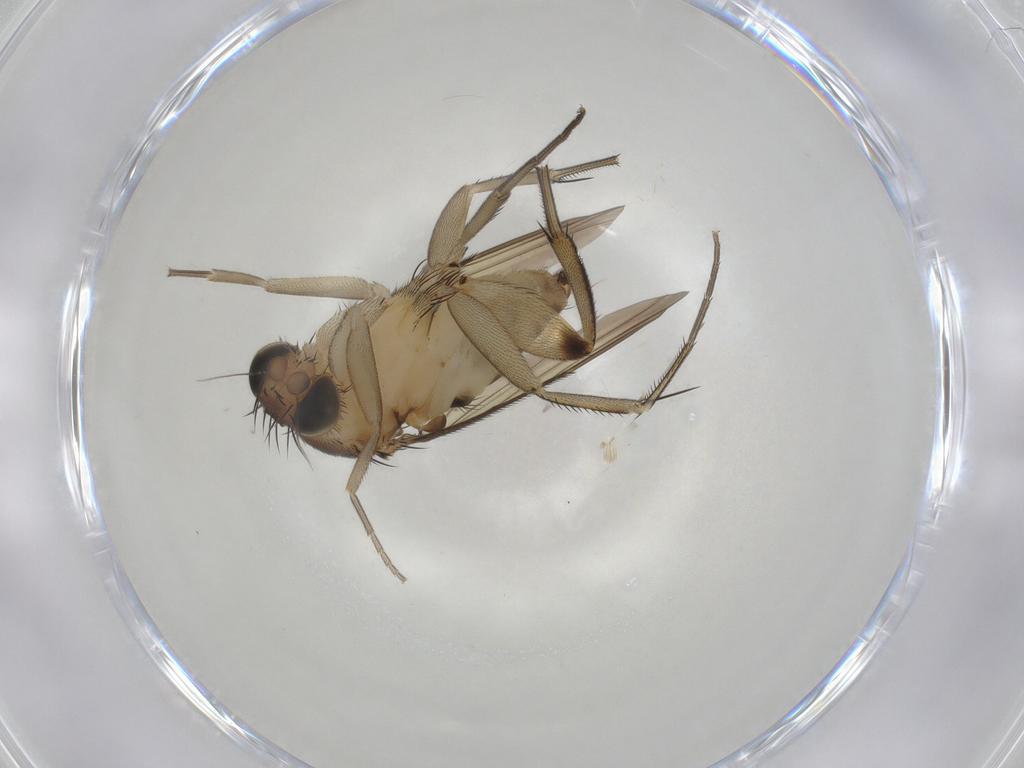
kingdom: Animalia
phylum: Arthropoda
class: Insecta
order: Diptera
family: Phoridae
